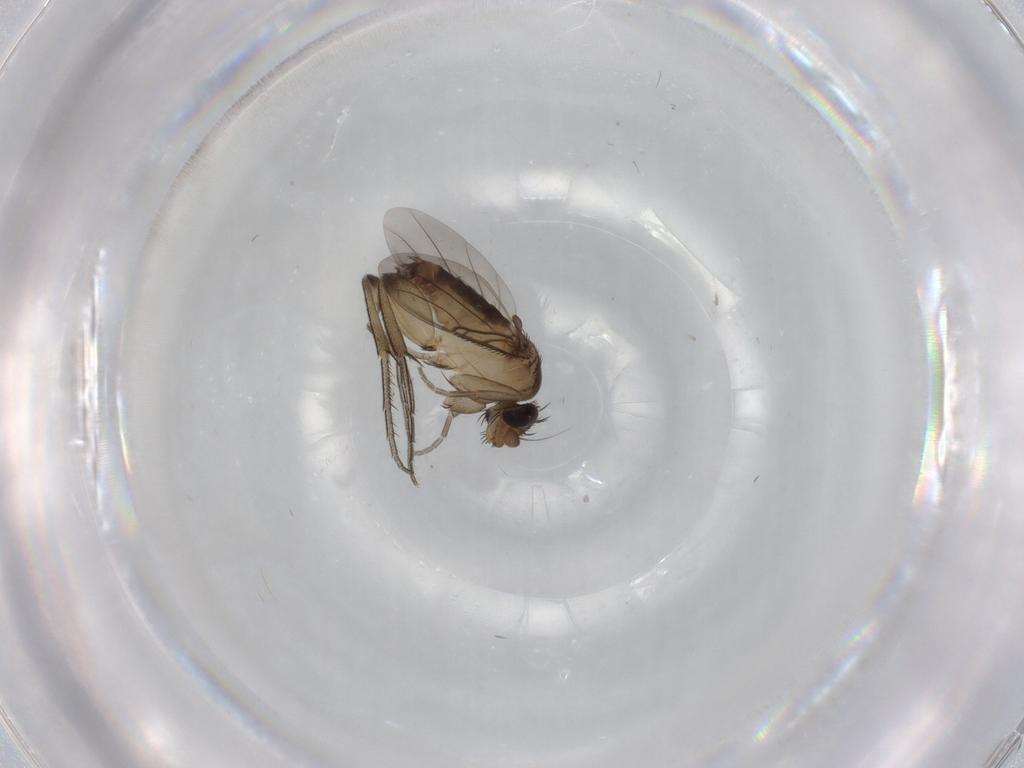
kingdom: Animalia
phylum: Arthropoda
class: Insecta
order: Diptera
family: Phoridae
